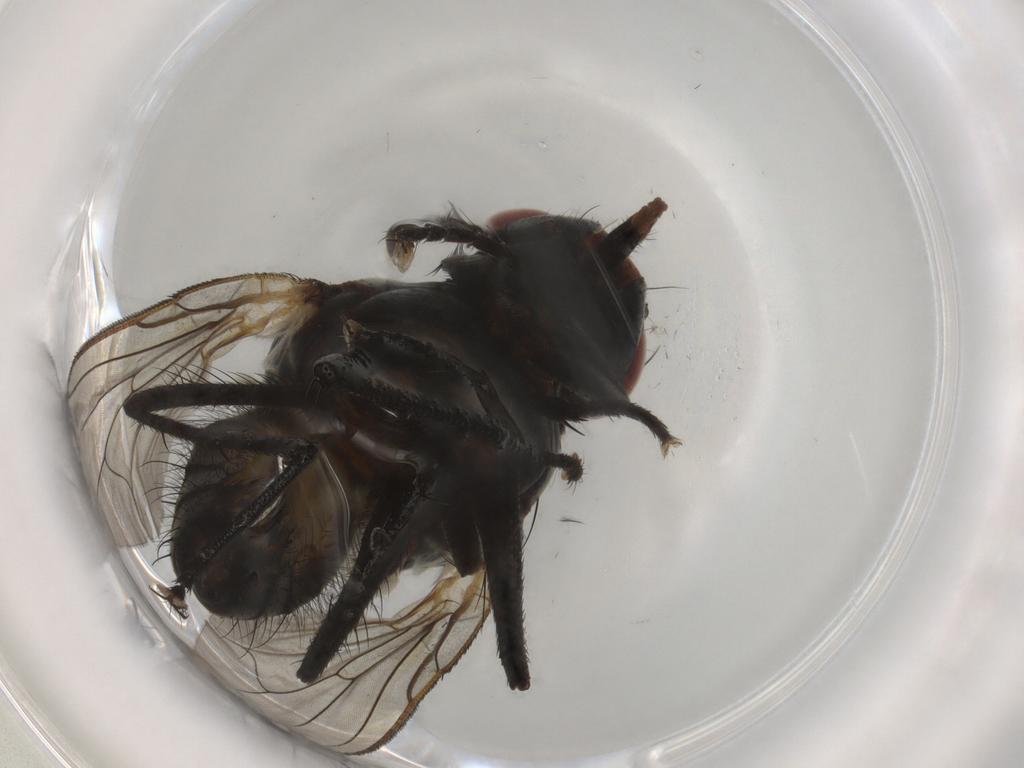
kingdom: Animalia
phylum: Arthropoda
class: Insecta
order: Diptera
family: Anthomyiidae
